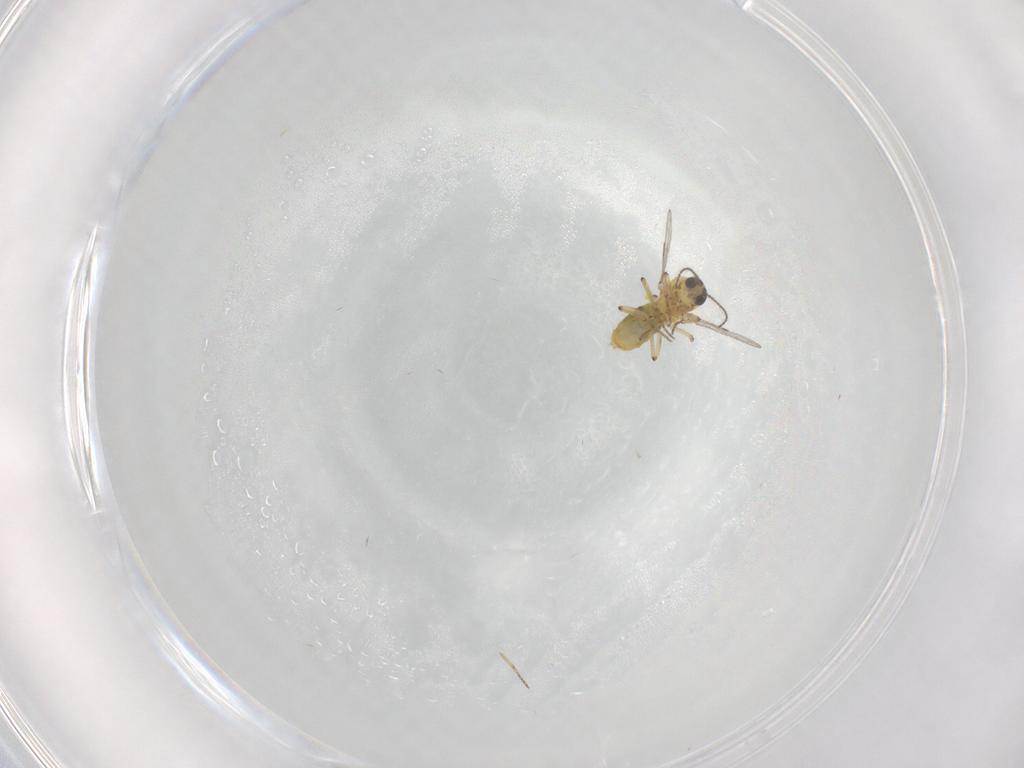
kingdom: Animalia
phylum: Arthropoda
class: Insecta
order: Diptera
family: Ceratopogonidae
